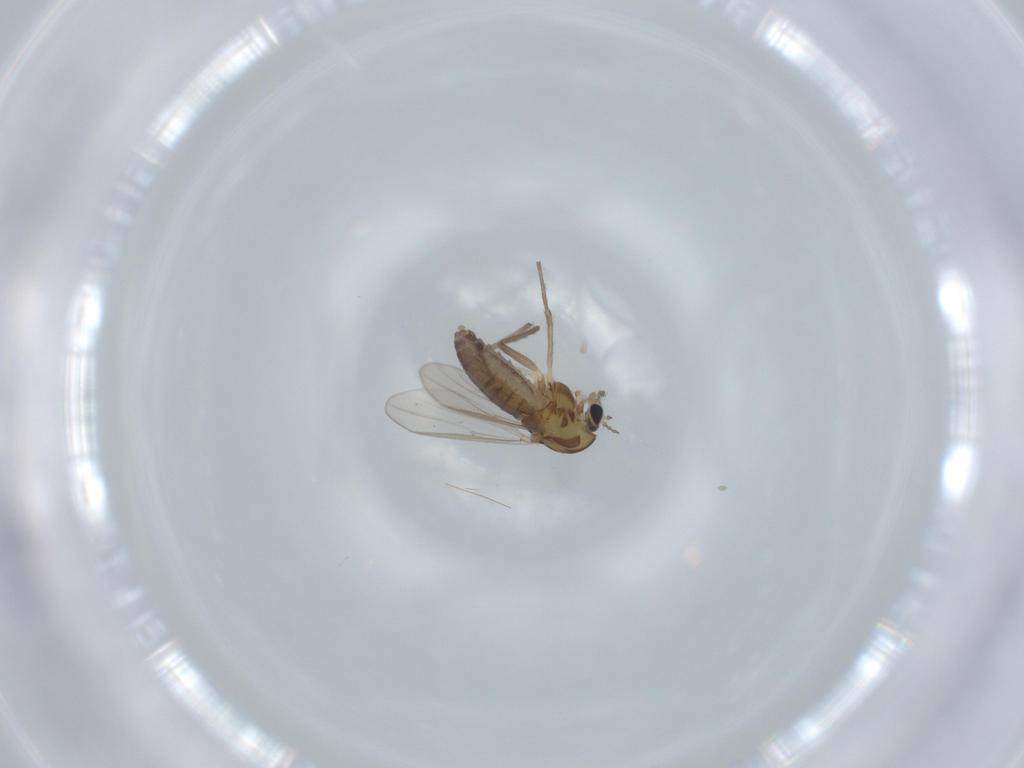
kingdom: Animalia
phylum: Arthropoda
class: Insecta
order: Diptera
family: Chironomidae
